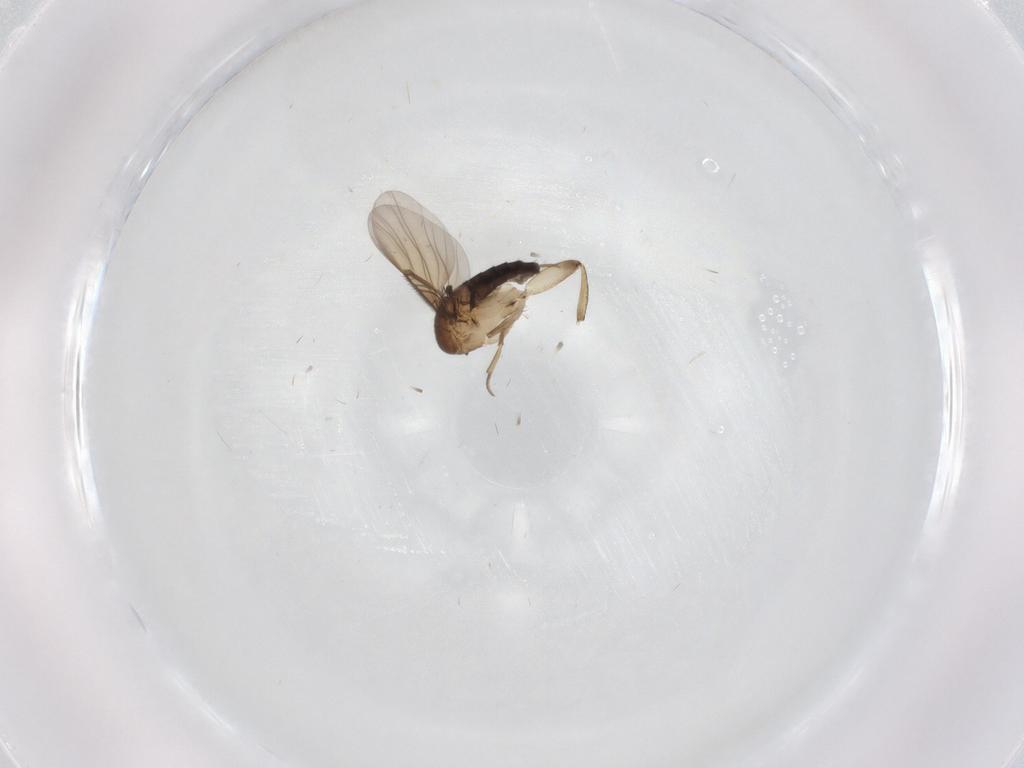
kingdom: Animalia
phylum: Arthropoda
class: Insecta
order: Diptera
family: Phoridae
